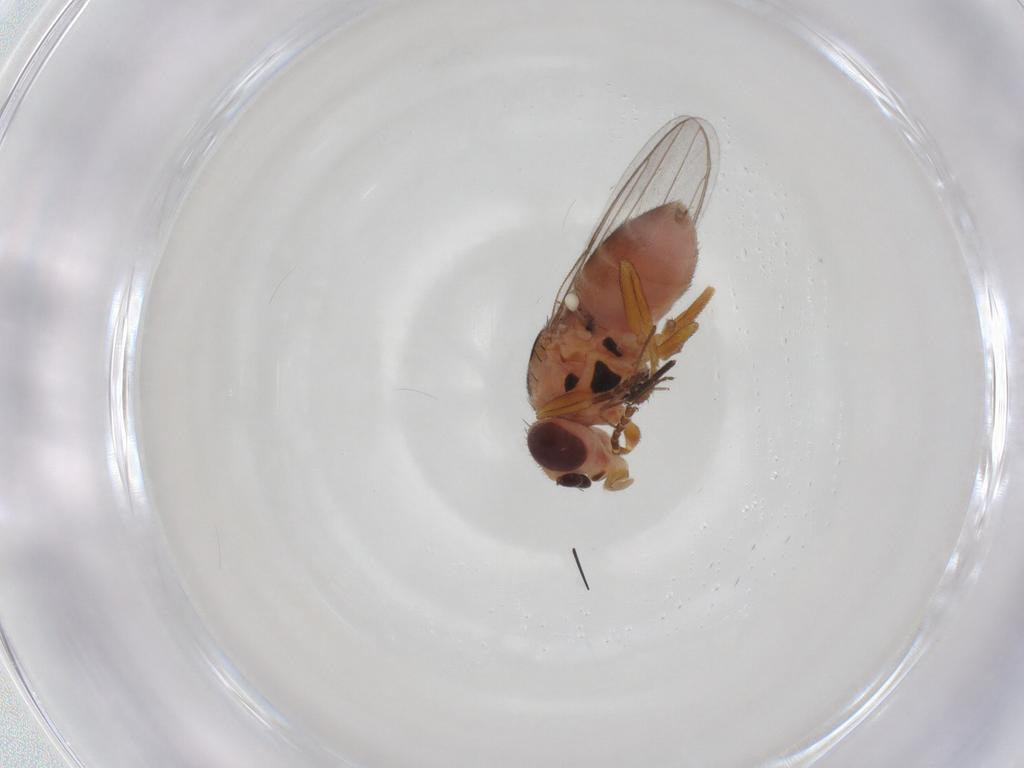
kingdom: Animalia
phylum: Arthropoda
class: Insecta
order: Diptera
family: Chloropidae
